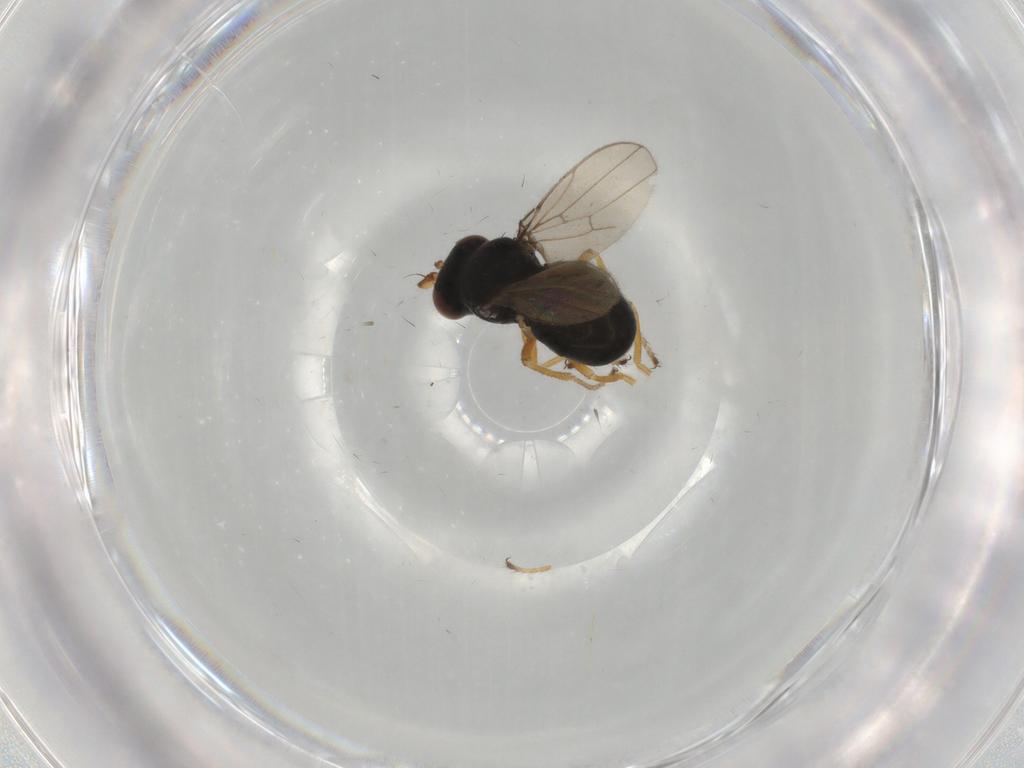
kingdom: Animalia
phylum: Arthropoda
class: Insecta
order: Diptera
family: Ephydridae
